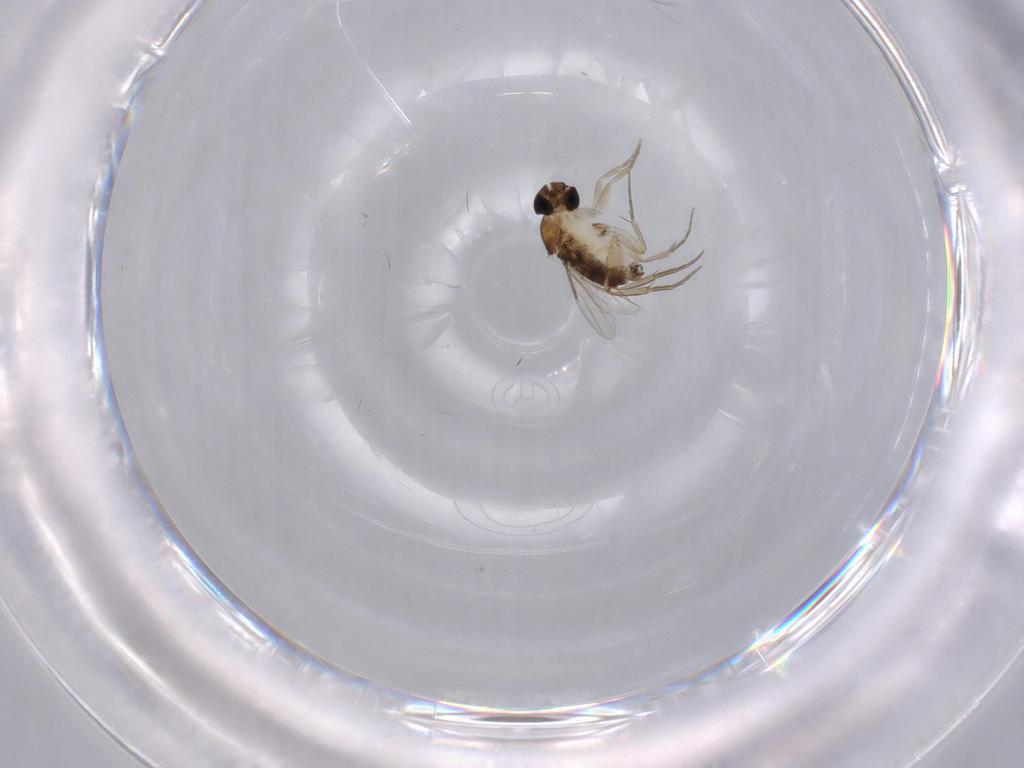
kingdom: Animalia
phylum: Arthropoda
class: Insecta
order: Diptera
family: Phoridae
